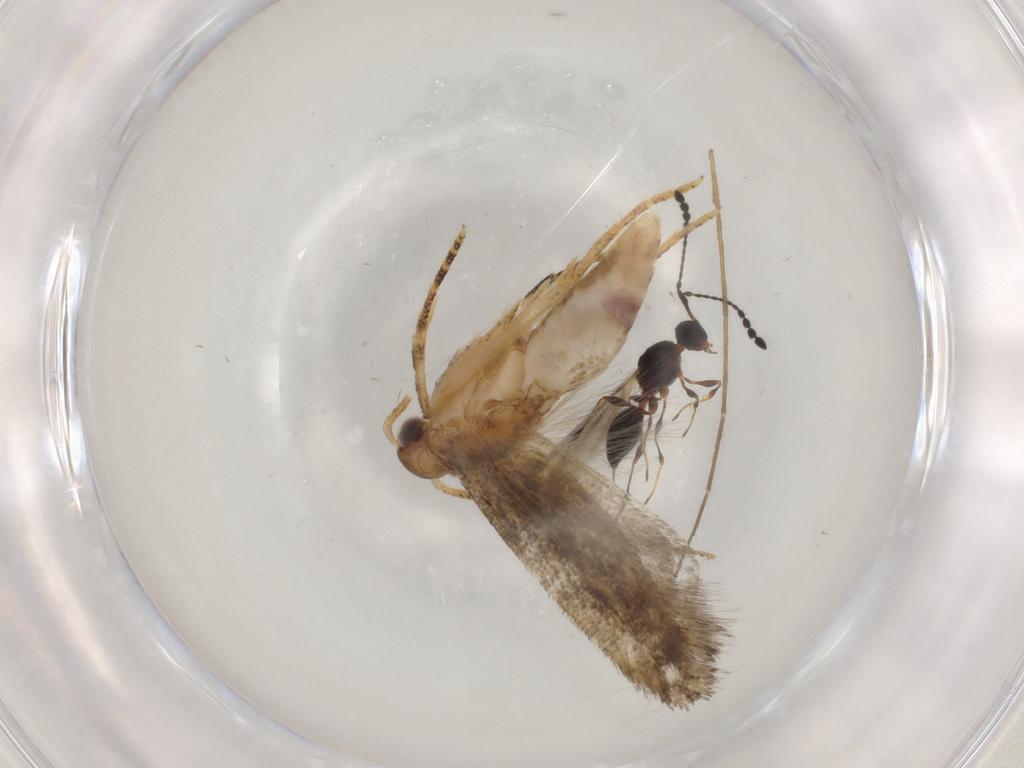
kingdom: Animalia
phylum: Arthropoda
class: Insecta
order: Lepidoptera
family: Gelechiidae
